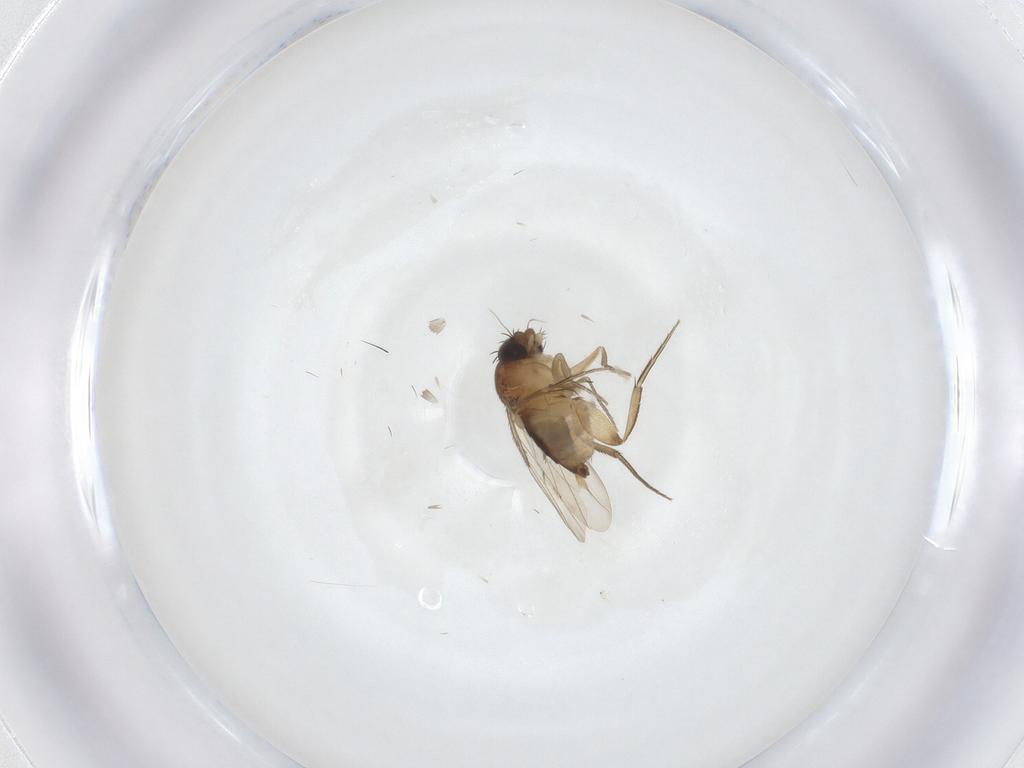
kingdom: Animalia
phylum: Arthropoda
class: Insecta
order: Diptera
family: Phoridae
